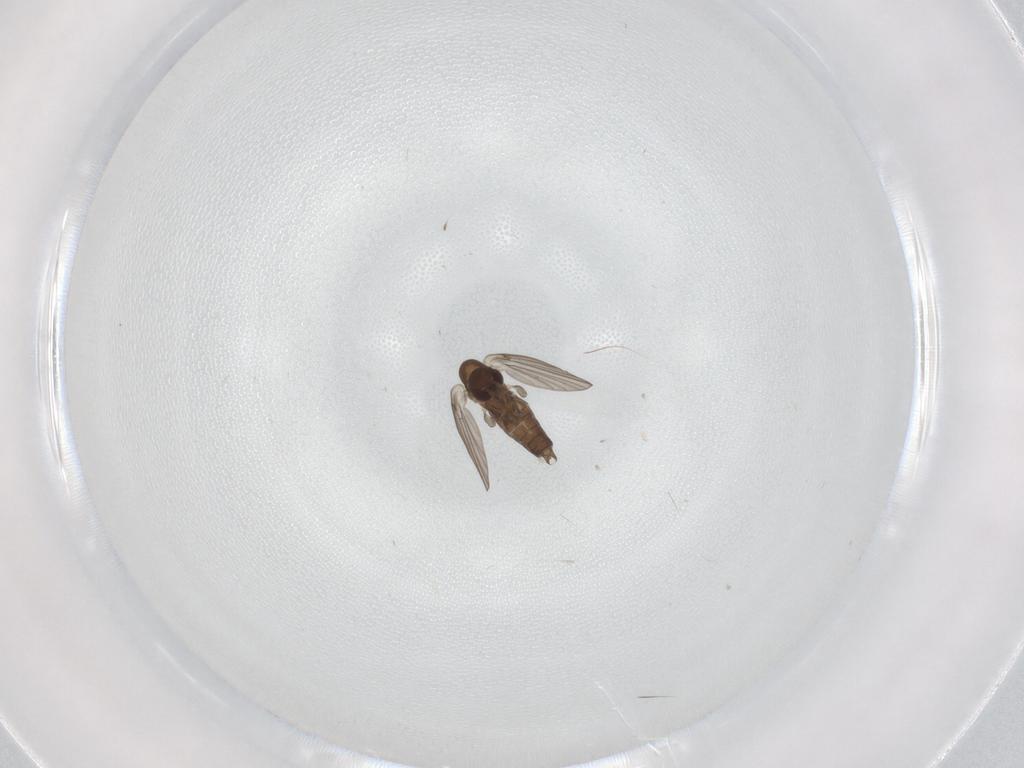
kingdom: Animalia
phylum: Arthropoda
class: Insecta
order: Diptera
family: Phoridae
